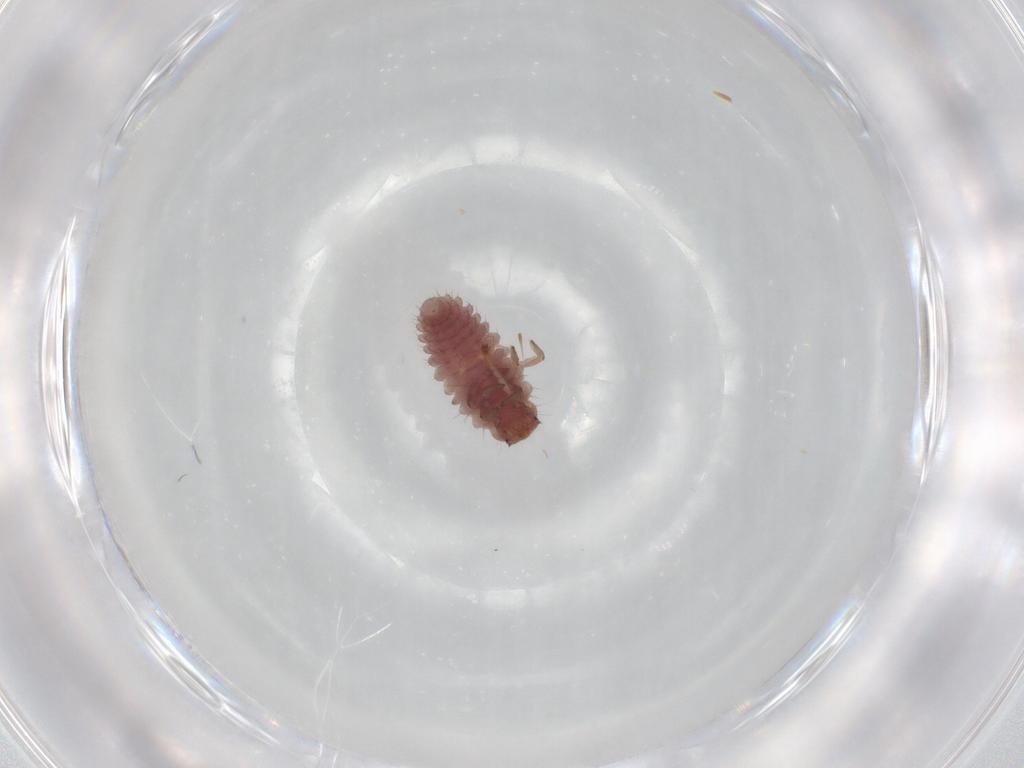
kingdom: Animalia
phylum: Arthropoda
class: Insecta
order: Coleoptera
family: Coccinellidae
